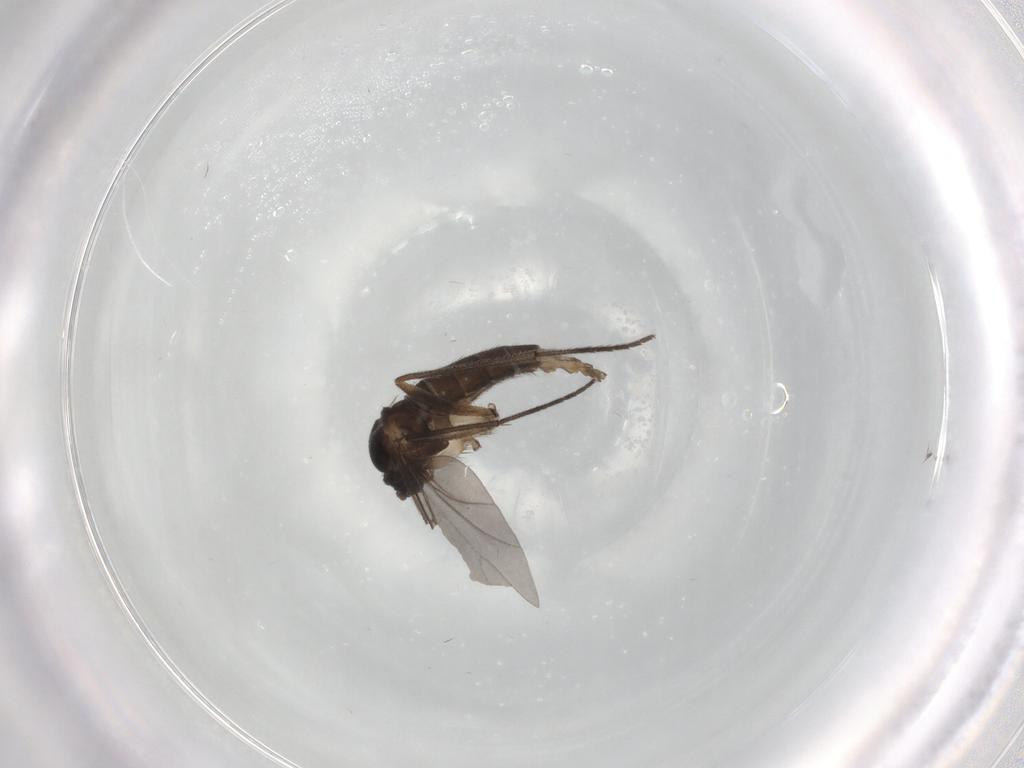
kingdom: Animalia
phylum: Arthropoda
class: Insecta
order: Diptera
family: Sciaridae
